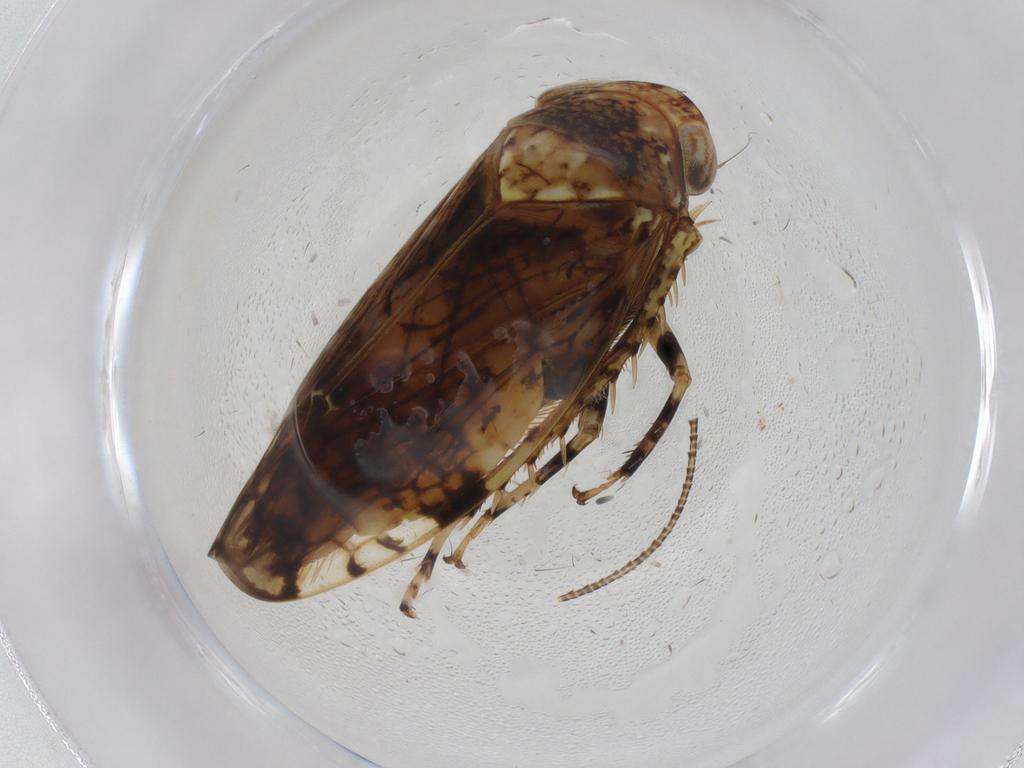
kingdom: Animalia
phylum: Arthropoda
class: Insecta
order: Hemiptera
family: Cicadellidae
